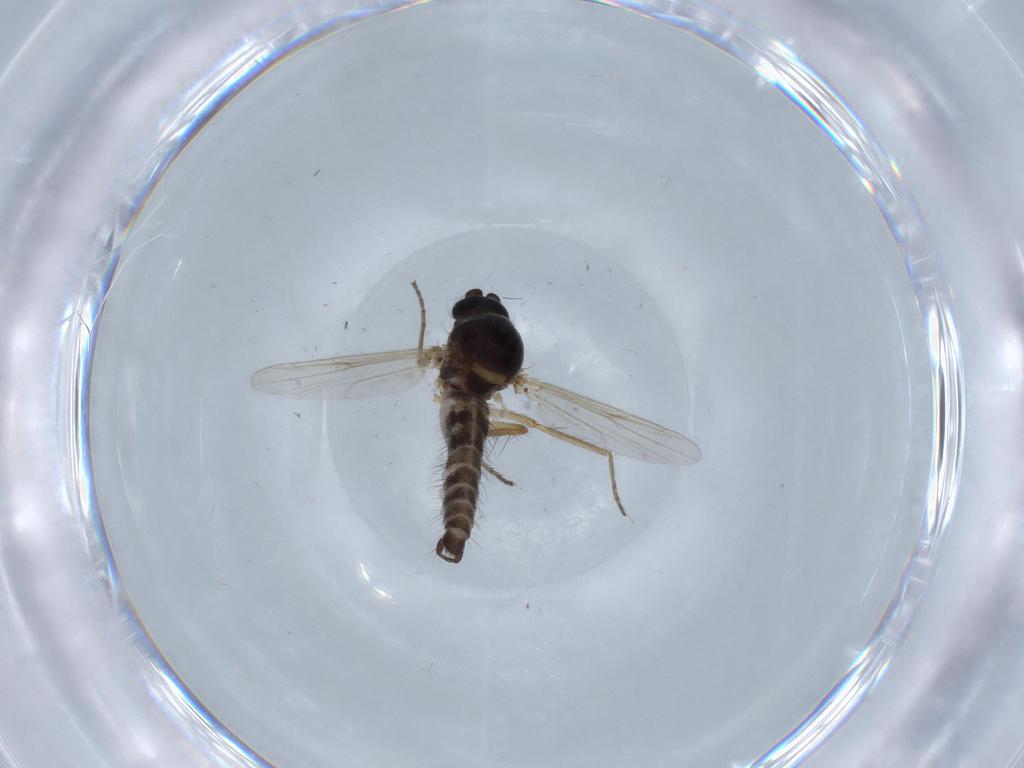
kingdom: Animalia
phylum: Arthropoda
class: Insecta
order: Diptera
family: Ceratopogonidae
